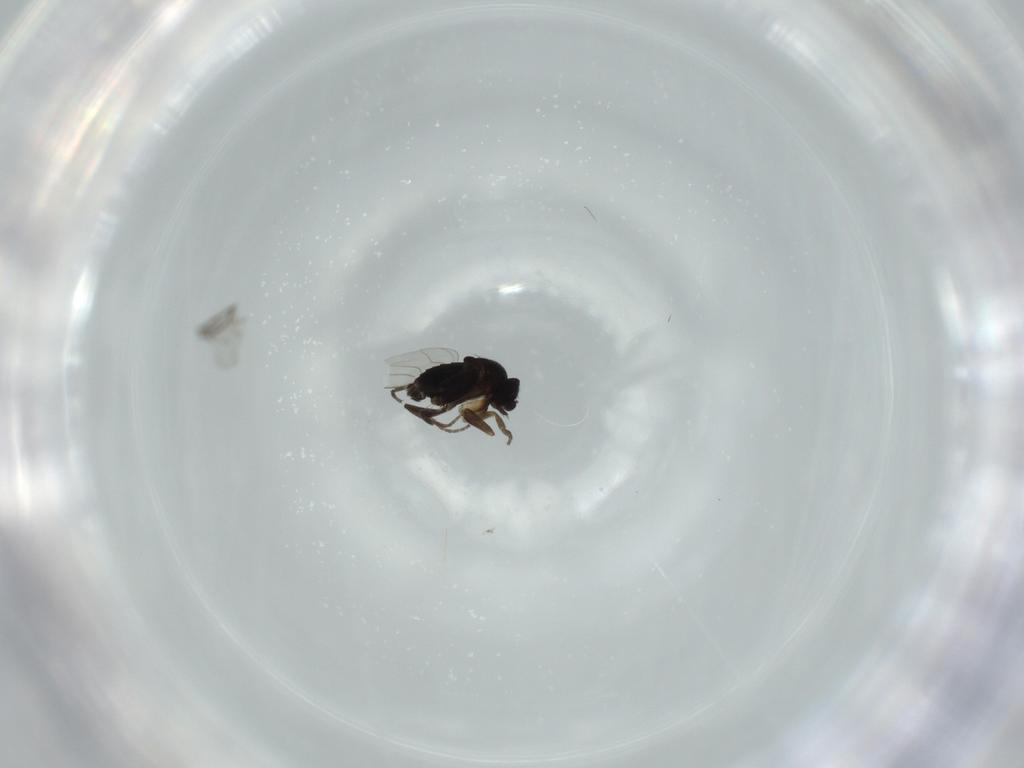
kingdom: Animalia
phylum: Arthropoda
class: Insecta
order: Diptera
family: Phoridae
